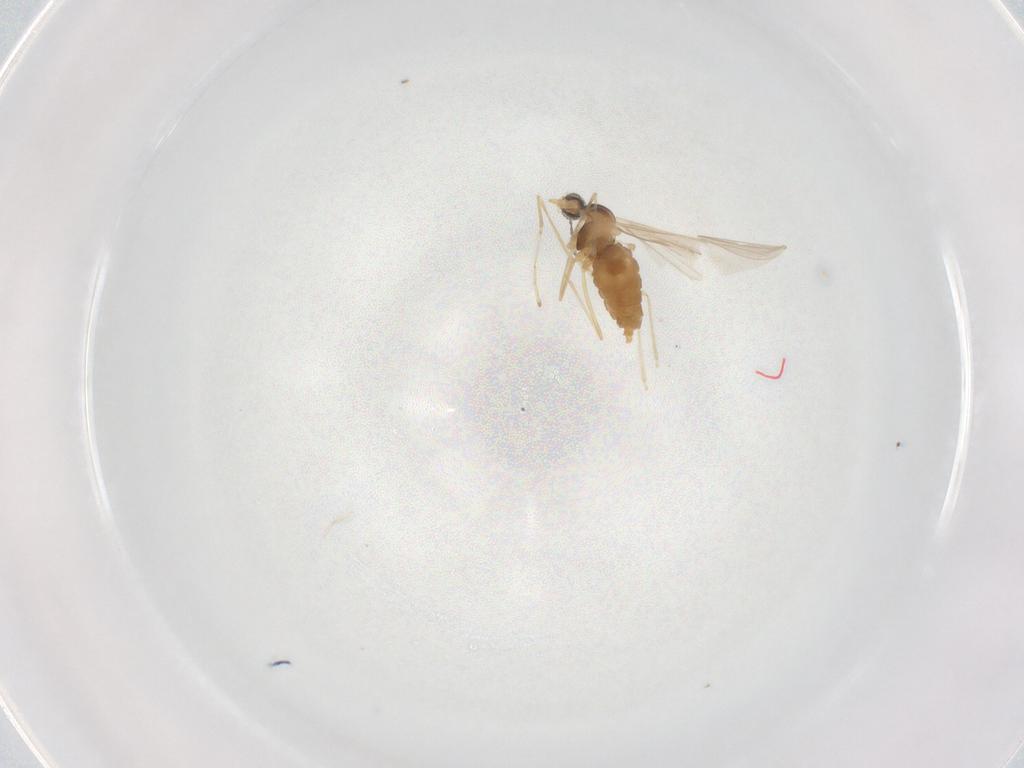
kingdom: Animalia
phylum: Arthropoda
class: Insecta
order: Diptera
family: Cecidomyiidae
